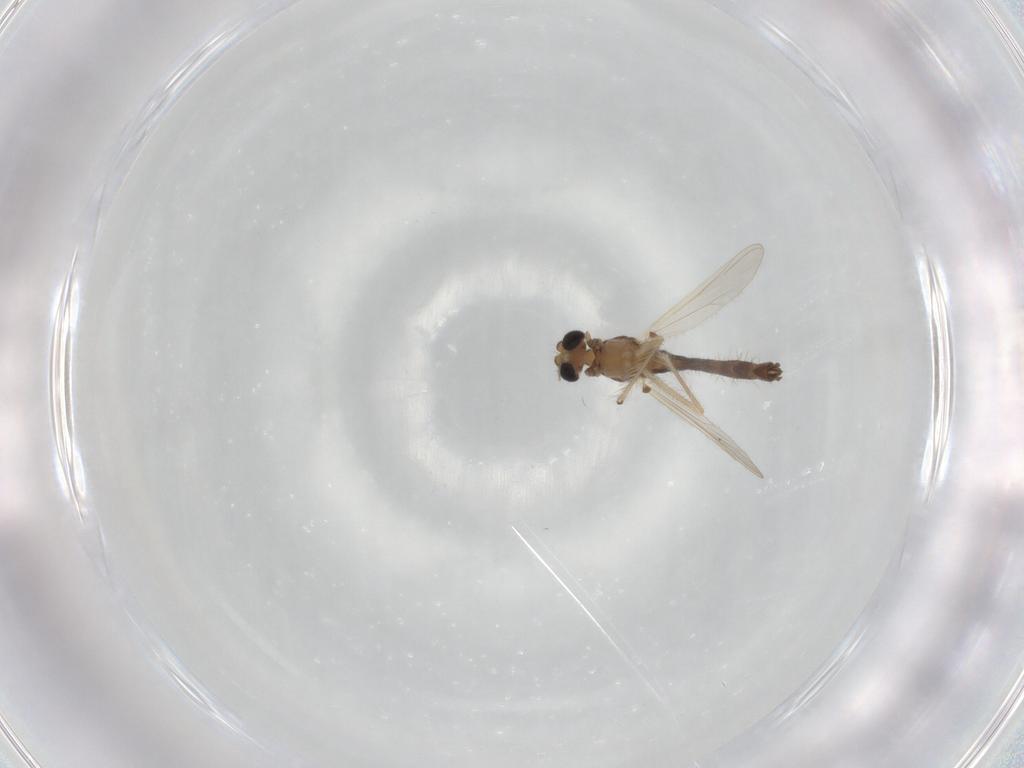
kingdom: Animalia
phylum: Arthropoda
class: Insecta
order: Diptera
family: Chironomidae
